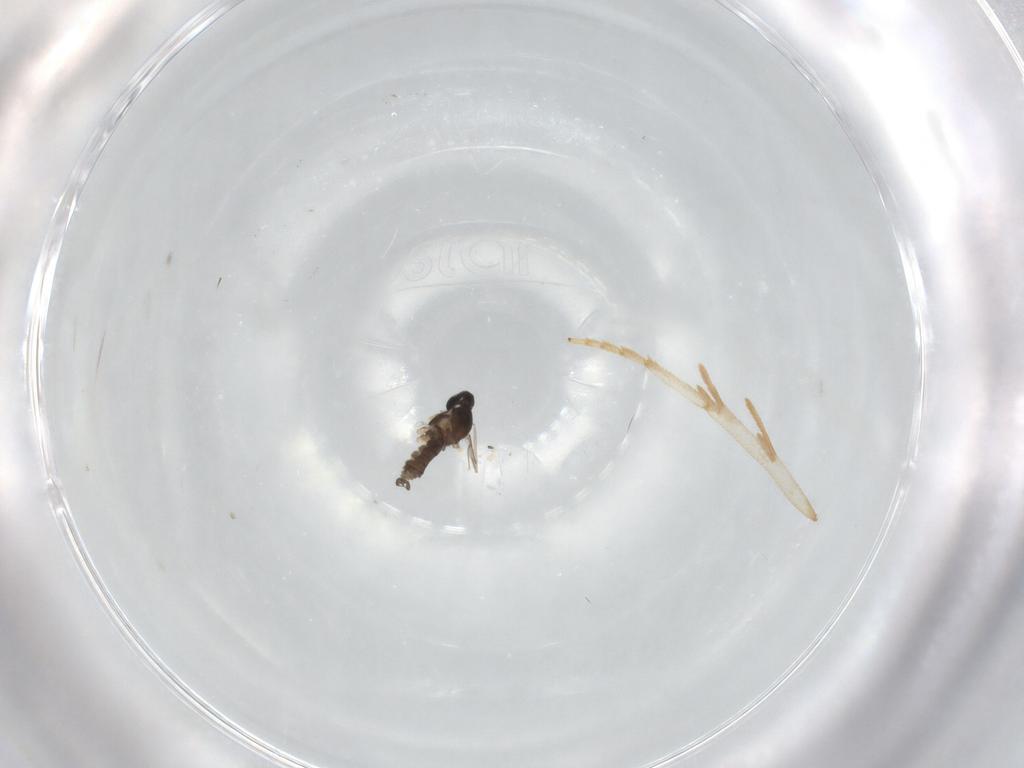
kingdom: Animalia
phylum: Arthropoda
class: Insecta
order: Diptera
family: Cecidomyiidae
